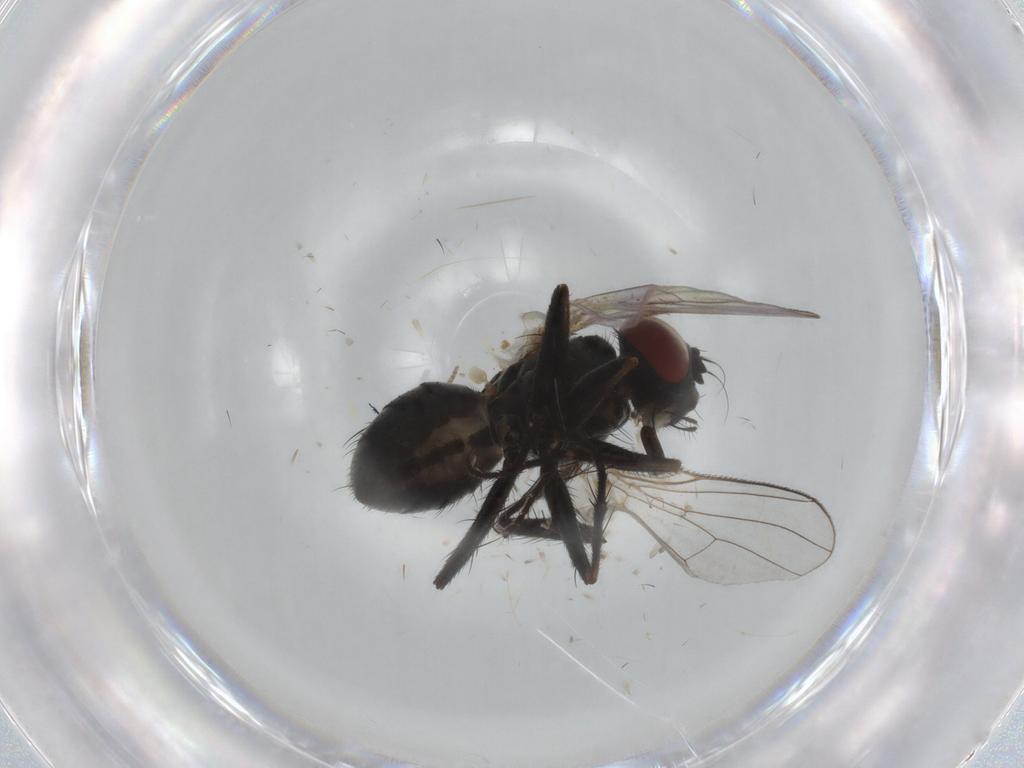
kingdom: Animalia
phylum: Arthropoda
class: Insecta
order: Diptera
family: Muscidae
